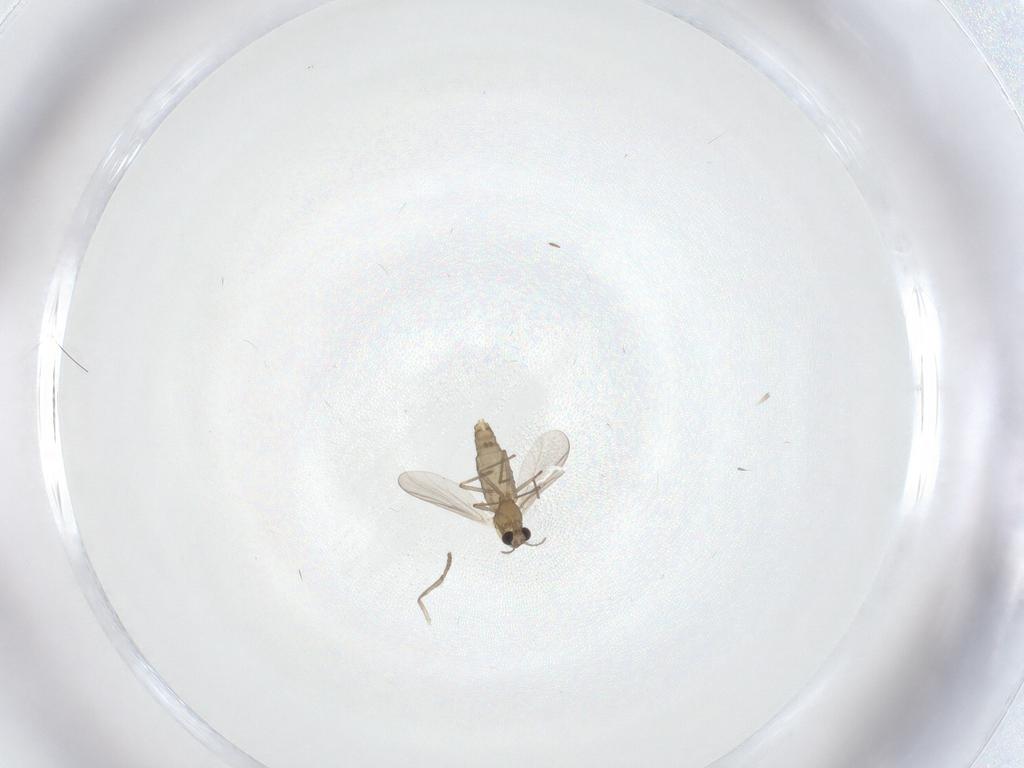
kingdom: Animalia
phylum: Arthropoda
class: Insecta
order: Diptera
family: Chironomidae
